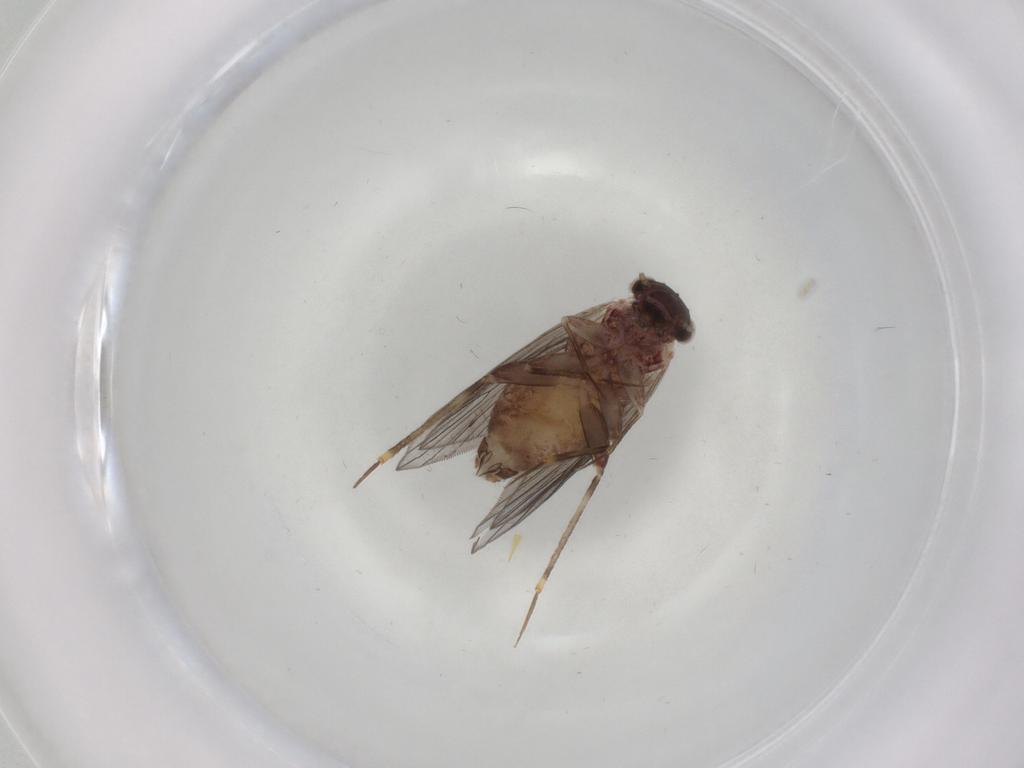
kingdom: Animalia
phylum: Arthropoda
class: Insecta
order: Psocodea
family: Lepidopsocidae
